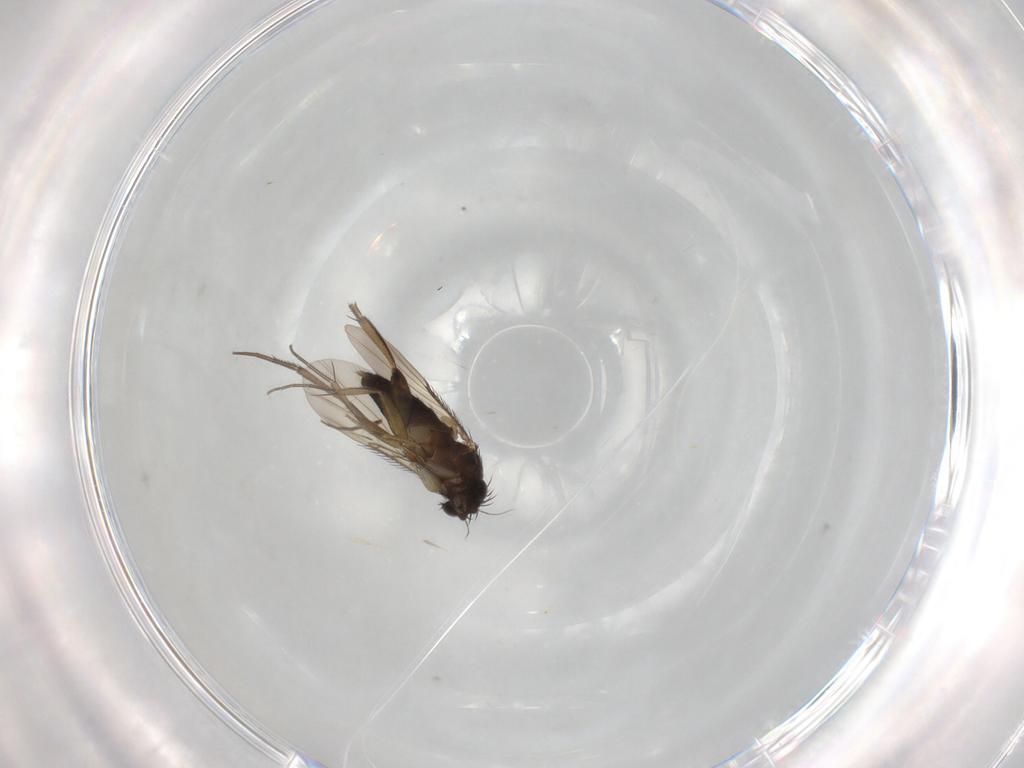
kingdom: Animalia
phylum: Arthropoda
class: Insecta
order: Diptera
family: Phoridae
